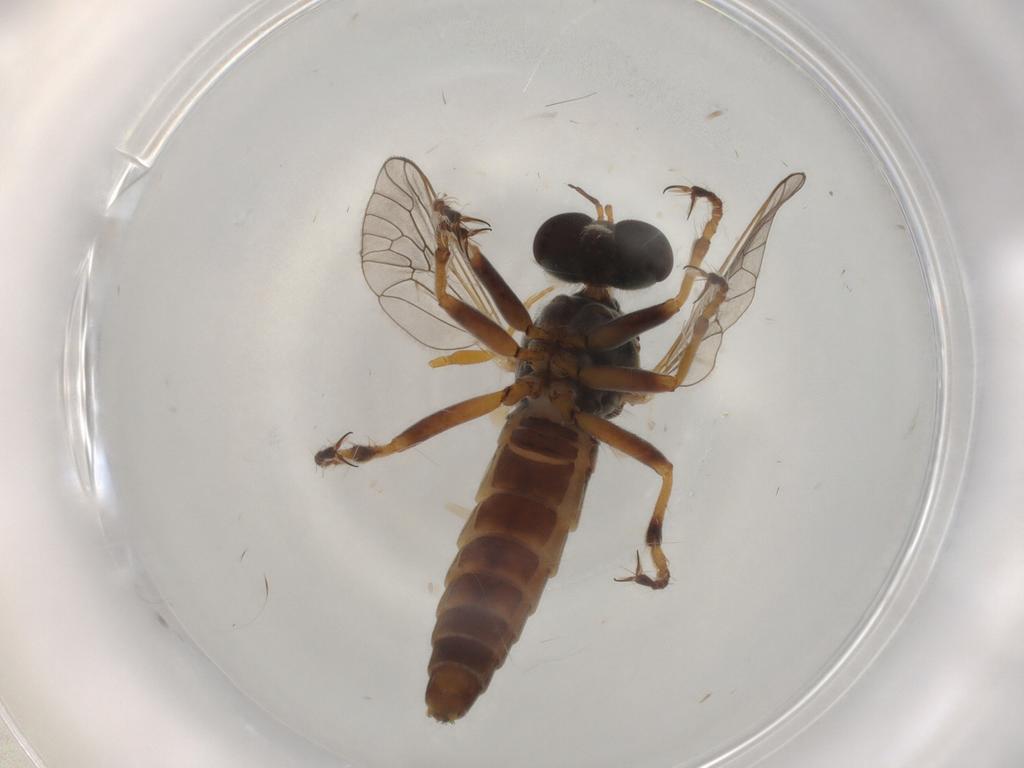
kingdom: Animalia
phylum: Arthropoda
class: Insecta
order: Diptera
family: Asilidae
